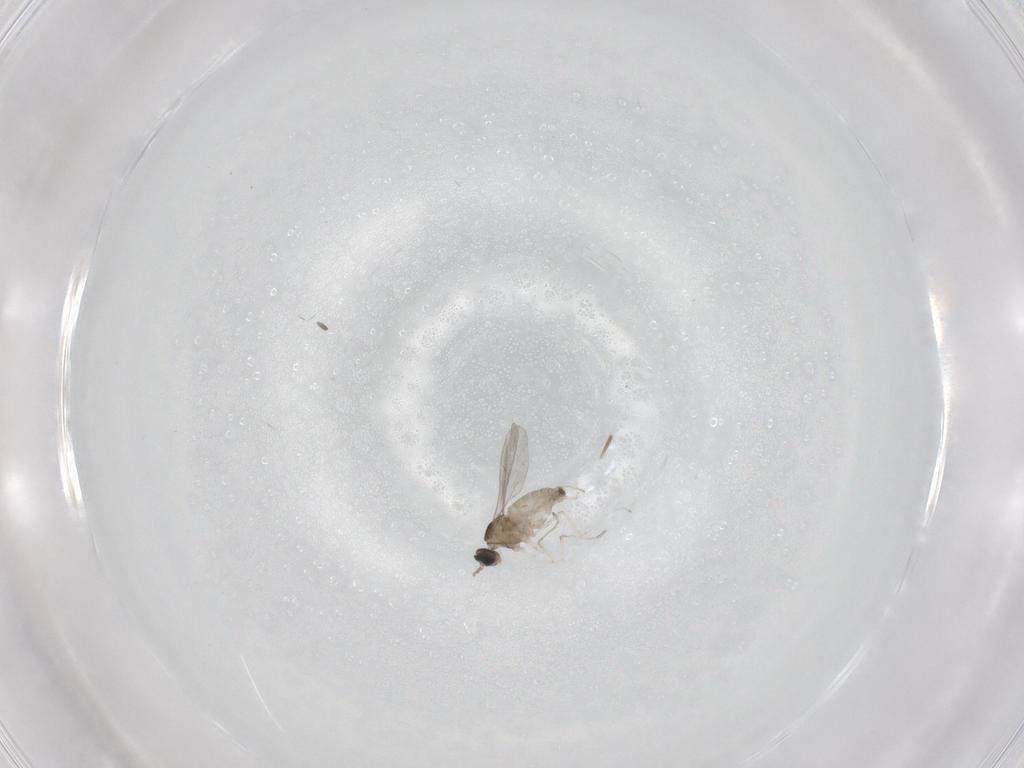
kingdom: Animalia
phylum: Arthropoda
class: Insecta
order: Diptera
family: Cecidomyiidae
